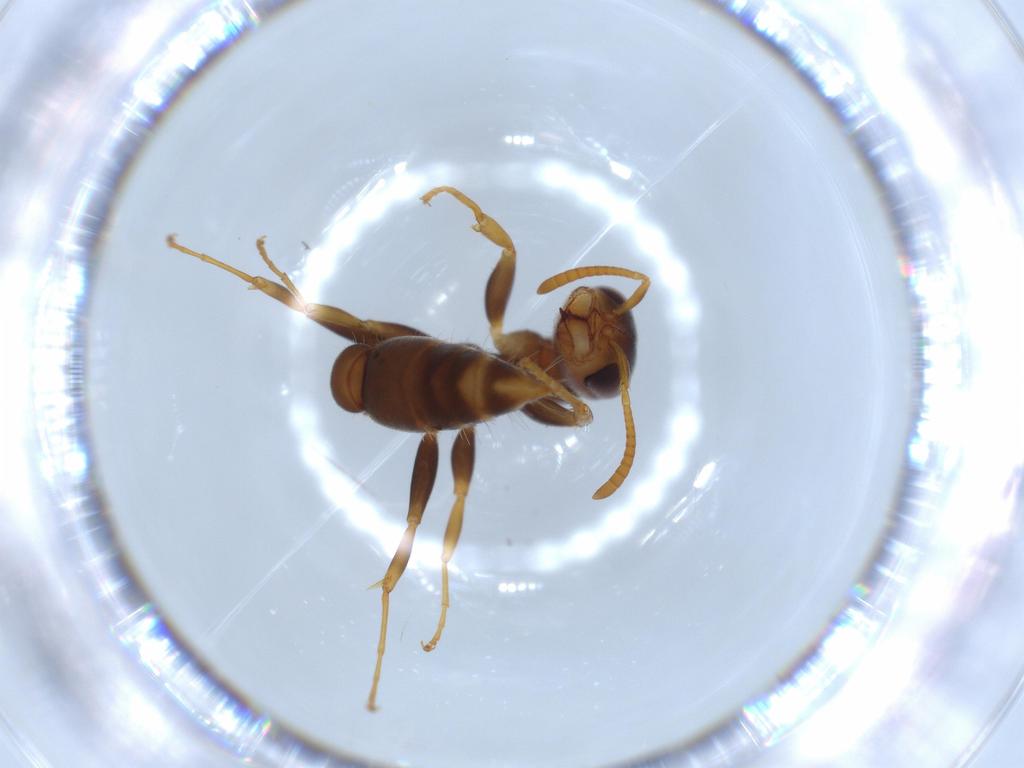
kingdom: Animalia
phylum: Arthropoda
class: Insecta
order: Hymenoptera
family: Formicidae
